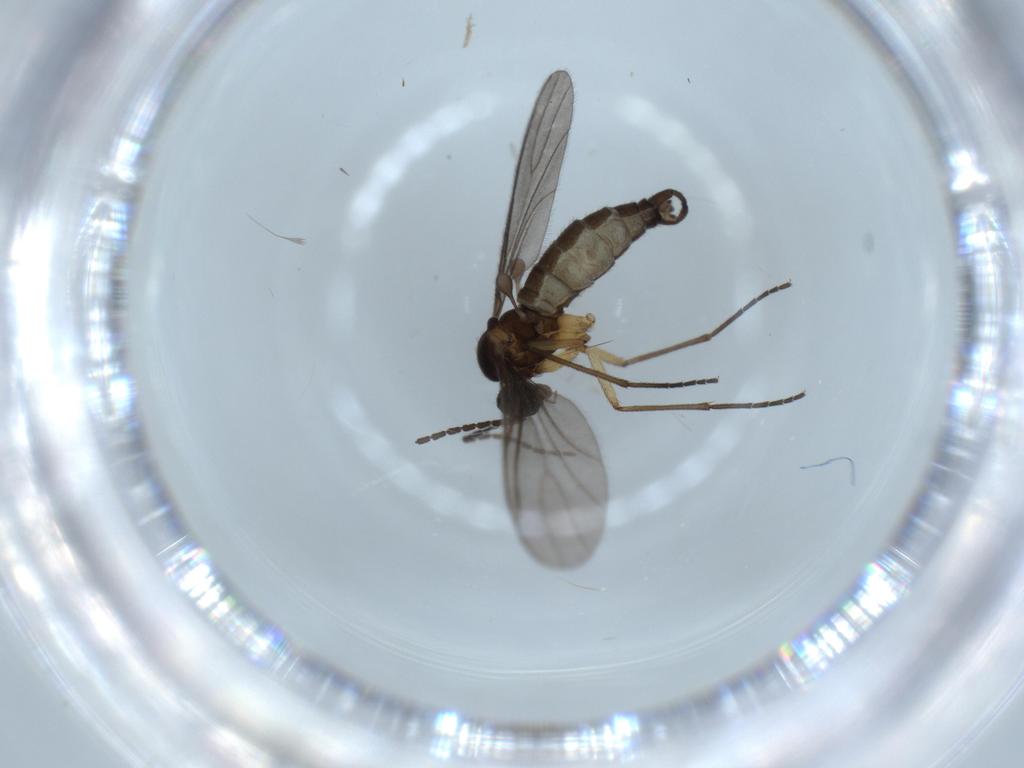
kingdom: Animalia
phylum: Arthropoda
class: Insecta
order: Diptera
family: Sciaridae
